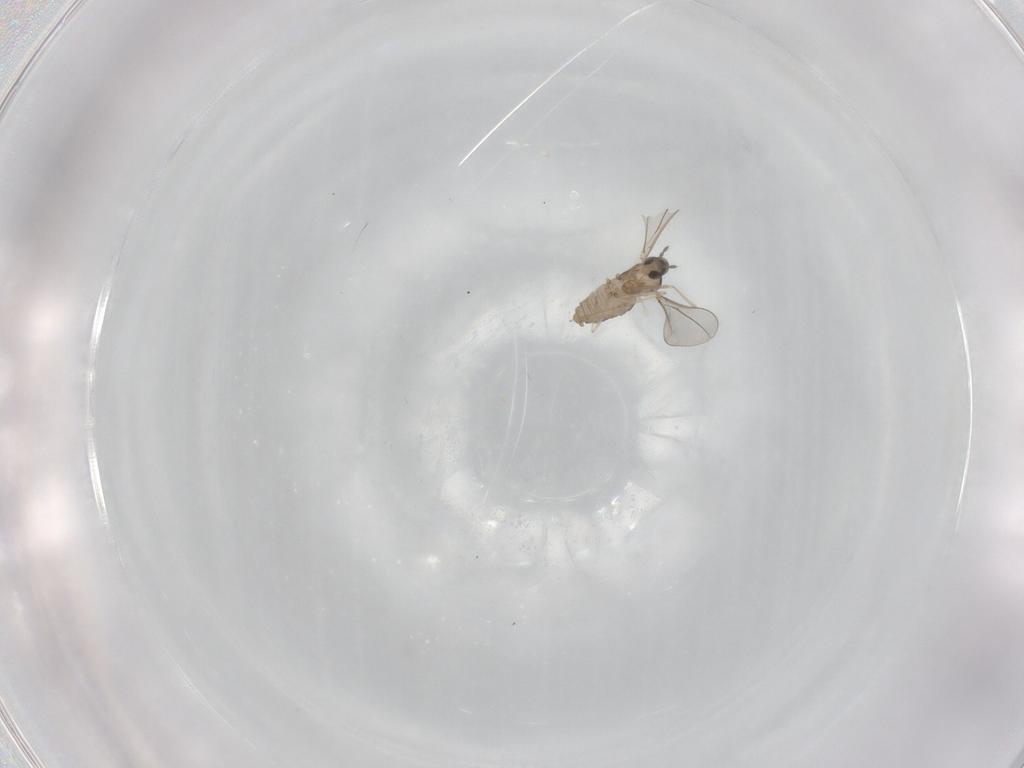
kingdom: Animalia
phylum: Arthropoda
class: Insecta
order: Diptera
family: Cecidomyiidae
